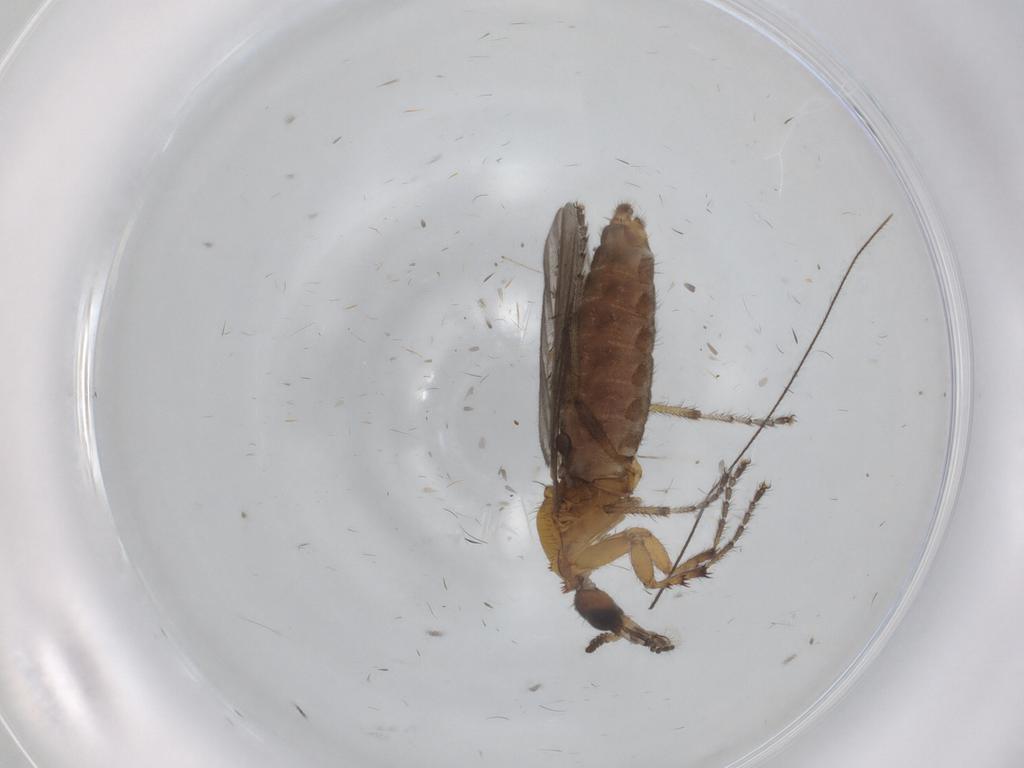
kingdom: Animalia
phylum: Arthropoda
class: Insecta
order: Diptera
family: Bibionidae
